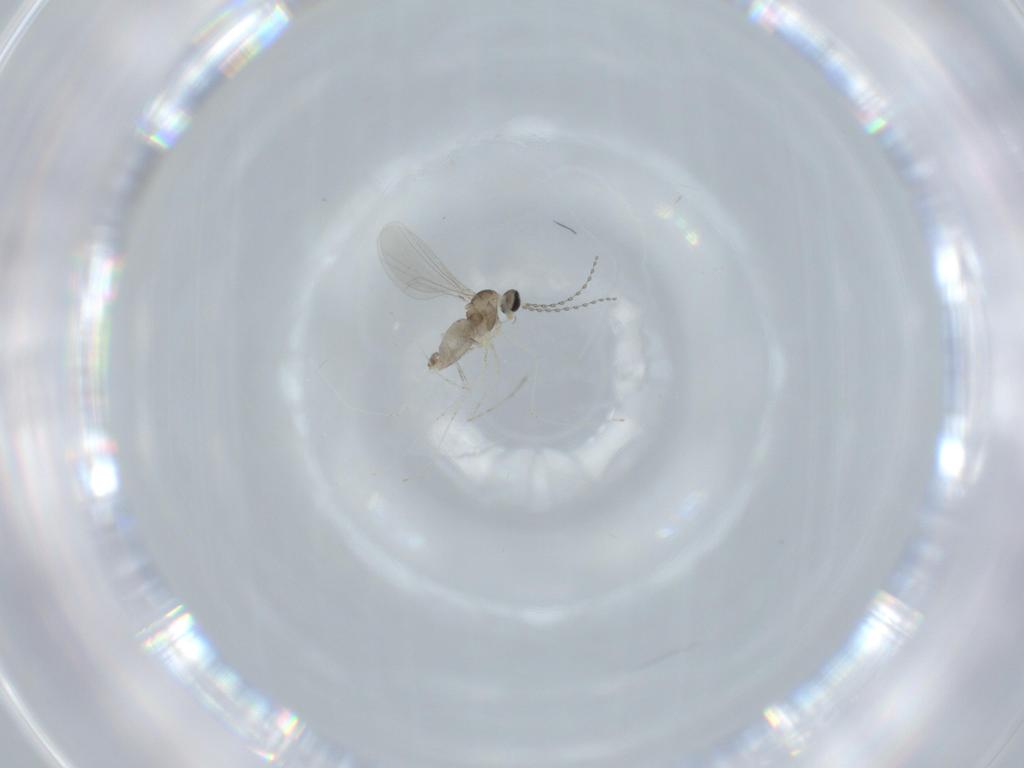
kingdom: Animalia
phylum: Arthropoda
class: Insecta
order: Diptera
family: Cecidomyiidae
